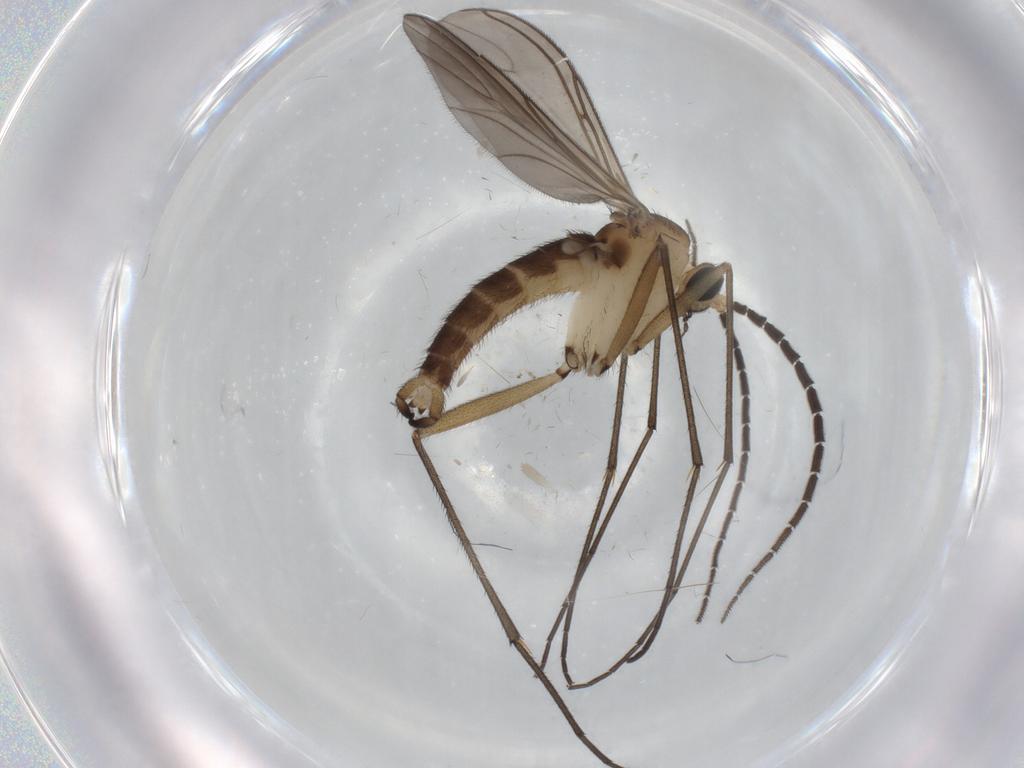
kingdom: Animalia
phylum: Arthropoda
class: Insecta
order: Diptera
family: Sciaridae
